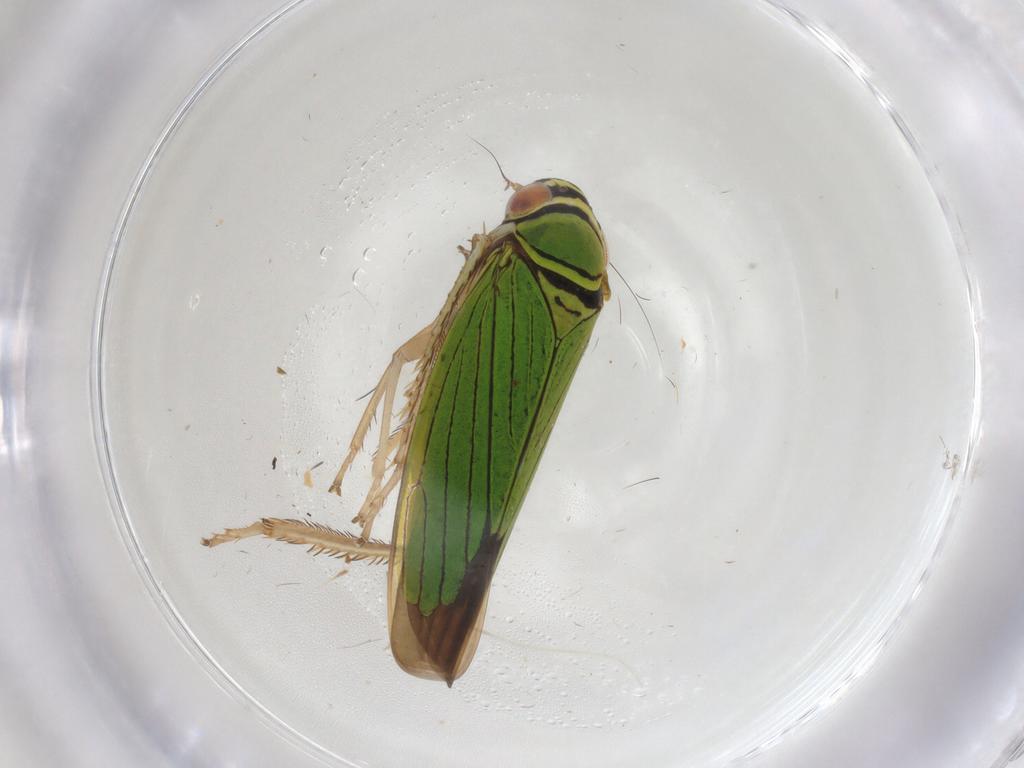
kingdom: Animalia
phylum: Arthropoda
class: Insecta
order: Hemiptera
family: Cicadellidae
